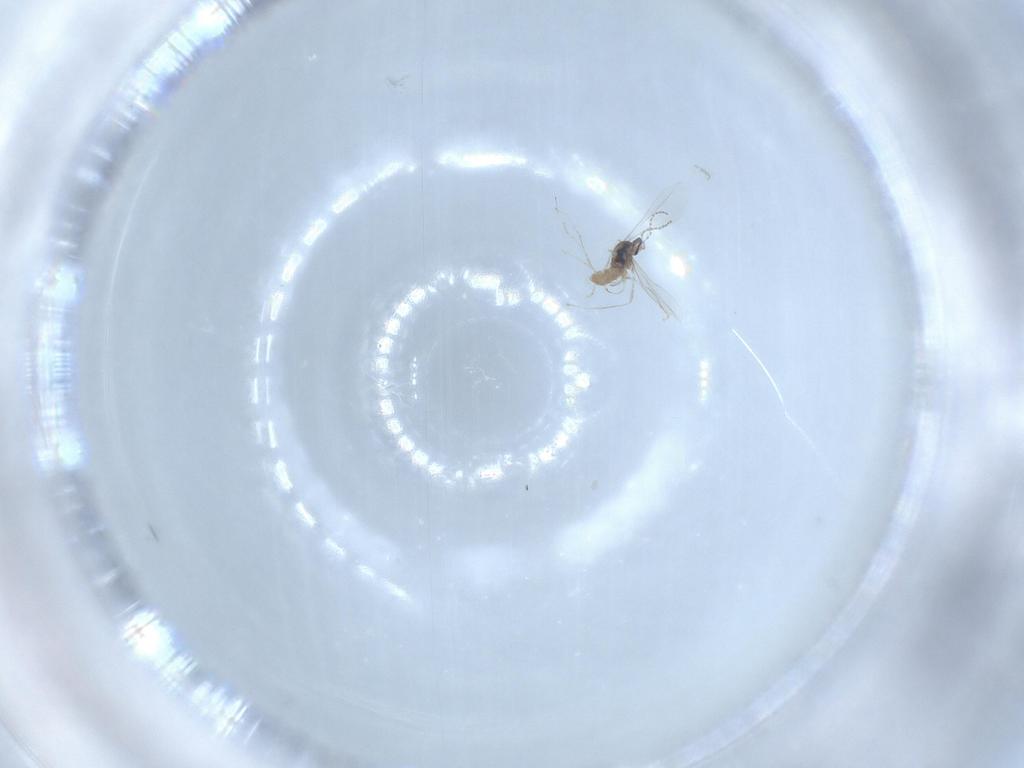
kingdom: Animalia
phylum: Arthropoda
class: Insecta
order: Diptera
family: Cecidomyiidae
